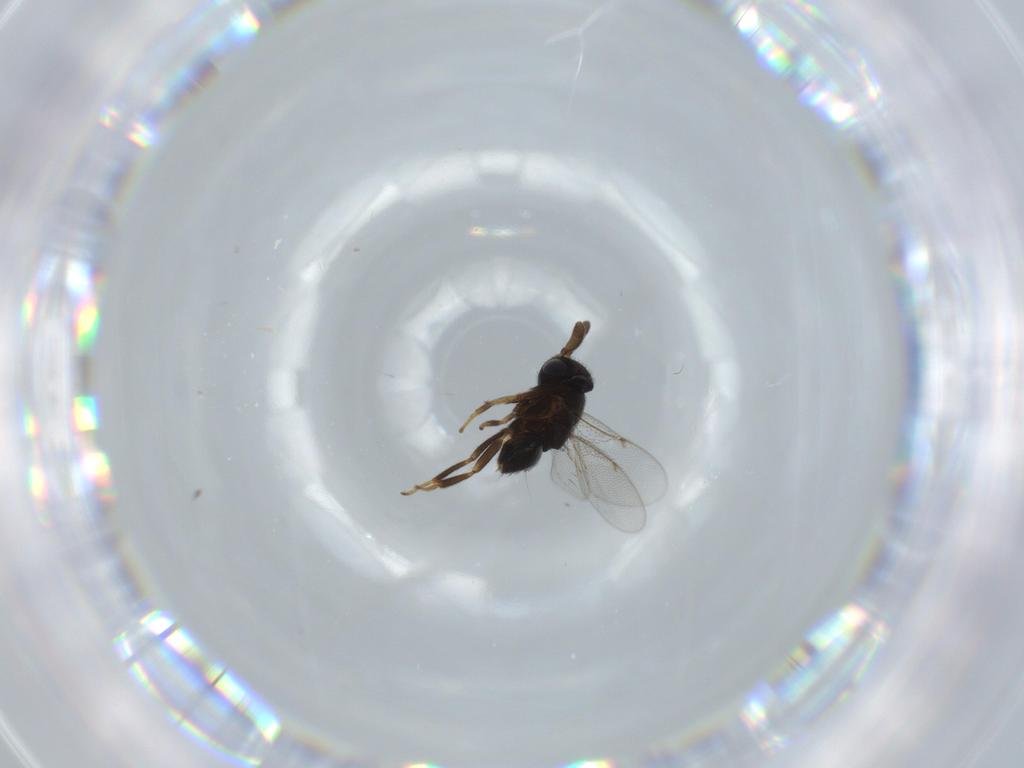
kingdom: Animalia
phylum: Arthropoda
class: Insecta
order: Hymenoptera
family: Encyrtidae
